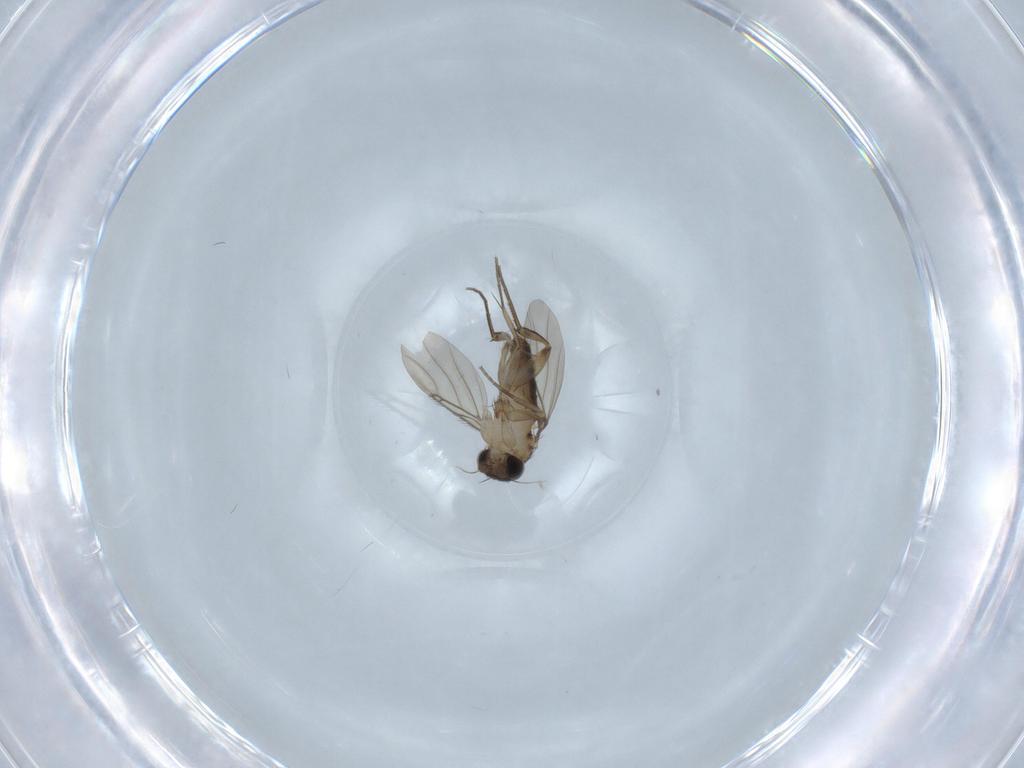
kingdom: Animalia
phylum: Arthropoda
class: Insecta
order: Diptera
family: Phoridae
